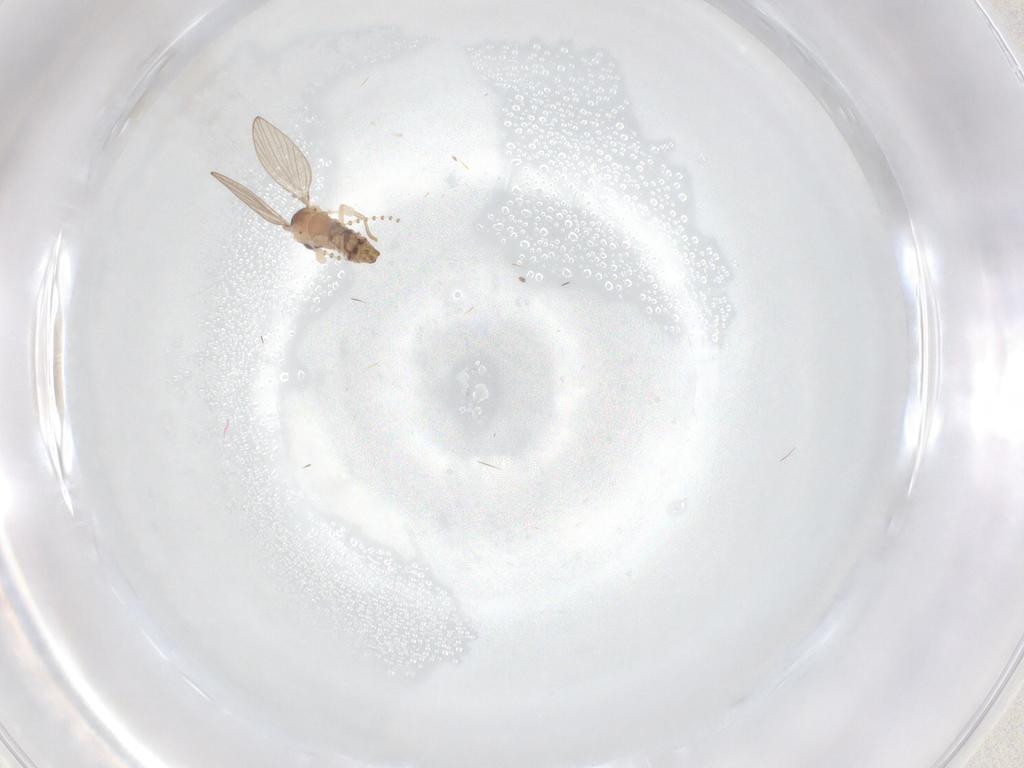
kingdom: Animalia
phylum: Arthropoda
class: Insecta
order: Diptera
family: Psychodidae
